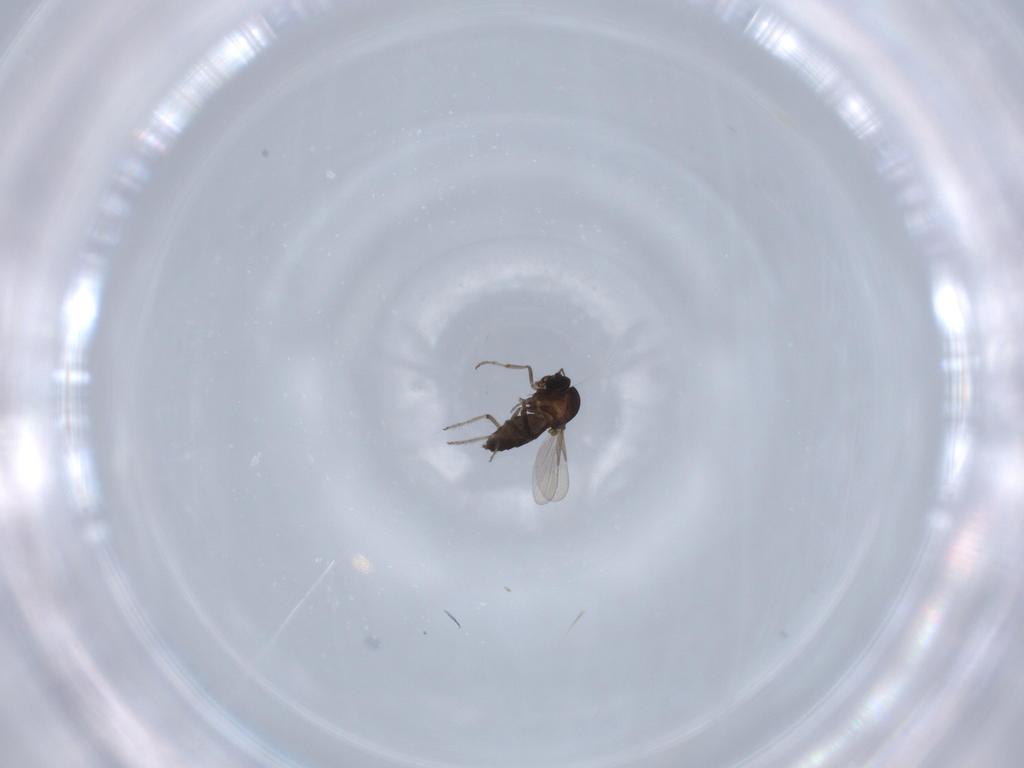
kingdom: Animalia
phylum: Arthropoda
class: Insecta
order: Diptera
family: Ceratopogonidae
